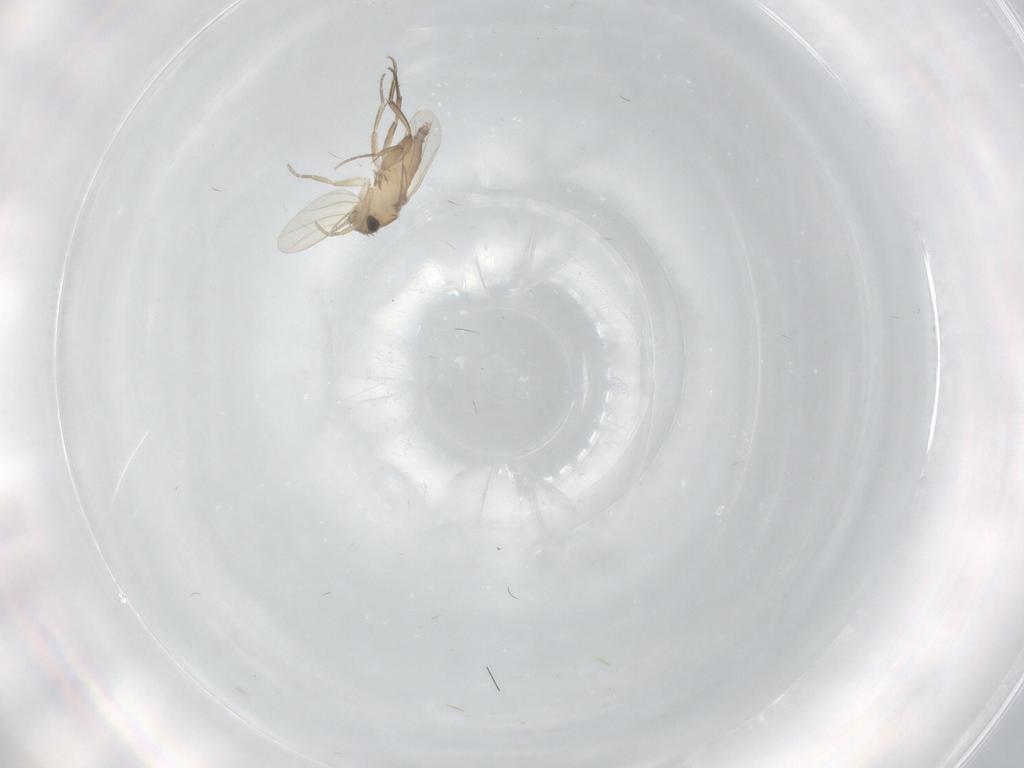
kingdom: Animalia
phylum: Arthropoda
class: Insecta
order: Diptera
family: Phoridae
